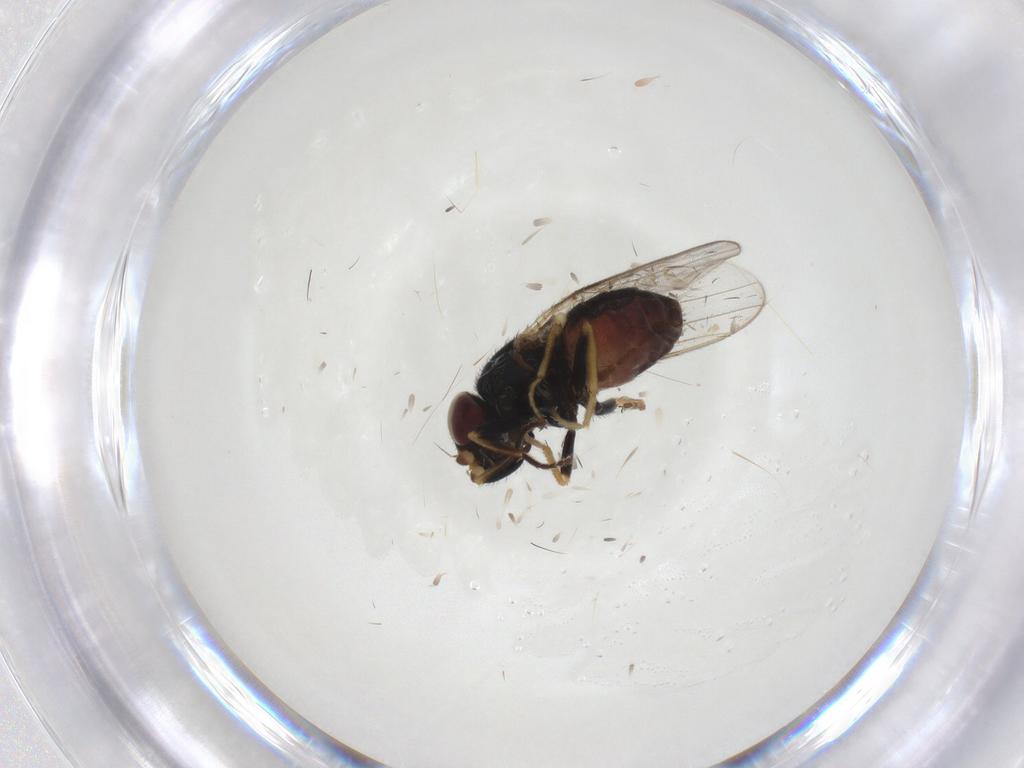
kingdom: Animalia
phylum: Arthropoda
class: Insecta
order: Diptera
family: Chloropidae
